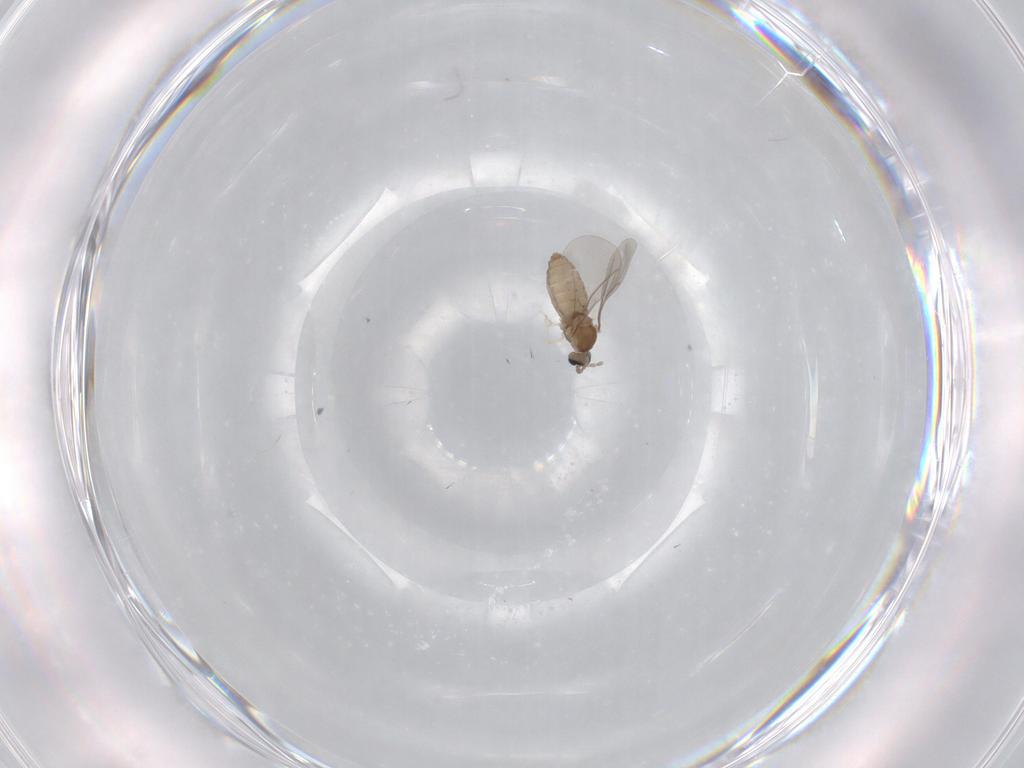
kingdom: Animalia
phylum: Arthropoda
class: Insecta
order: Diptera
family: Cecidomyiidae
